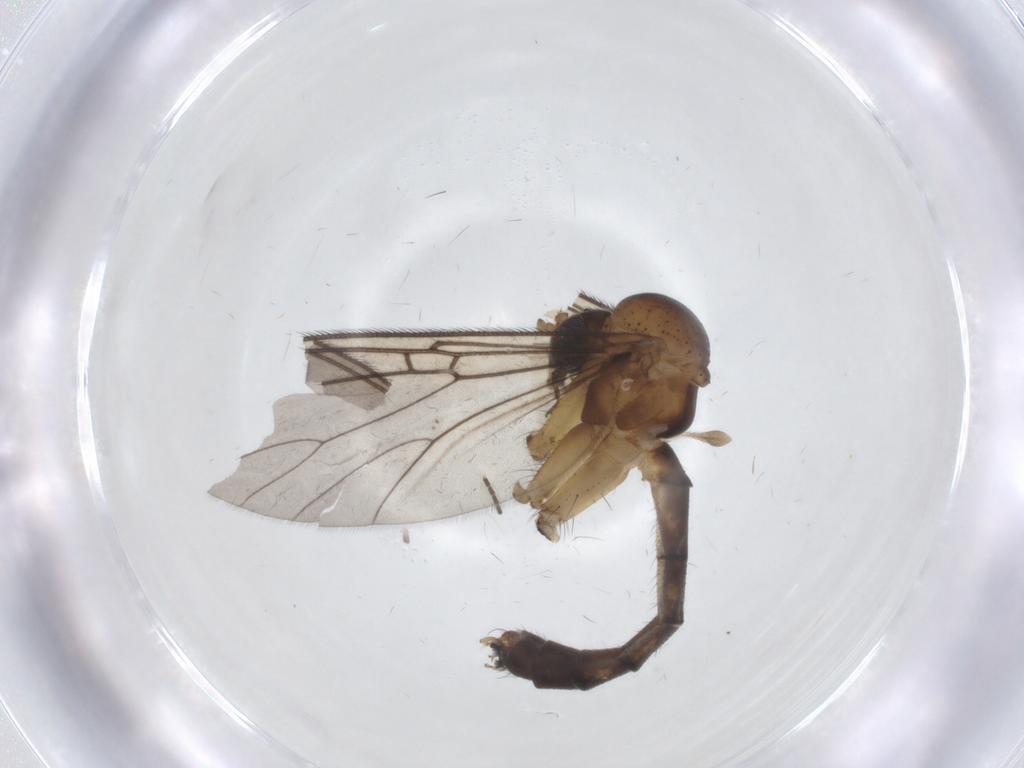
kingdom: Animalia
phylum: Arthropoda
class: Insecta
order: Diptera
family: Mycetophilidae
